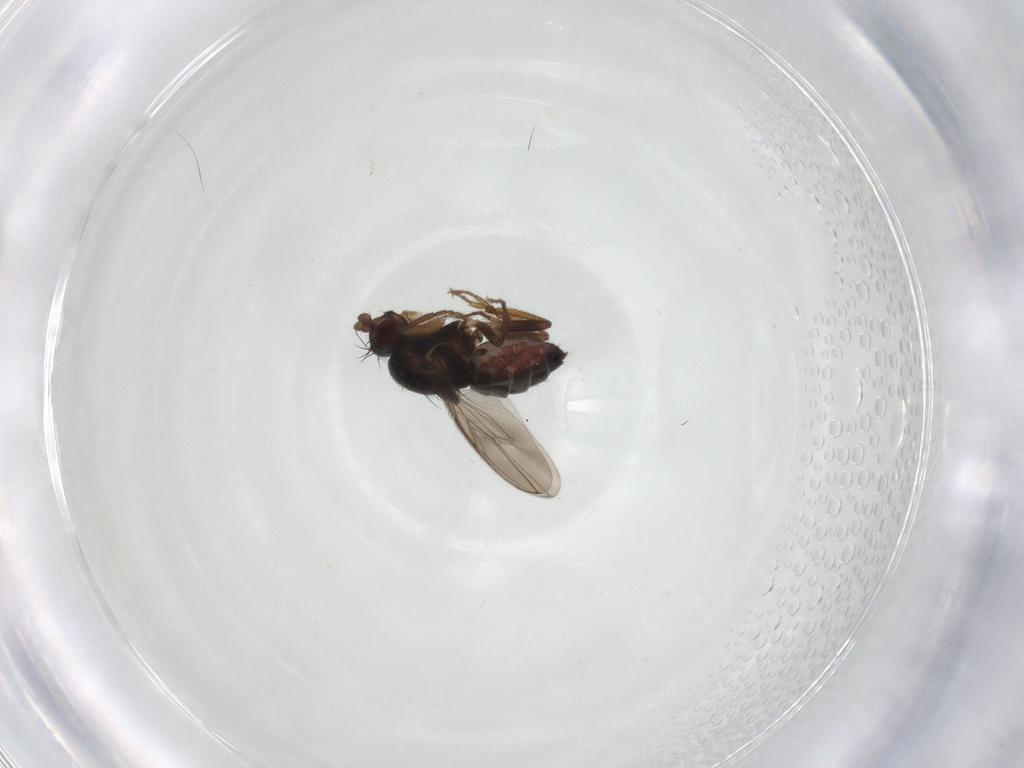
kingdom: Animalia
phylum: Arthropoda
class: Insecta
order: Diptera
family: Sphaeroceridae
